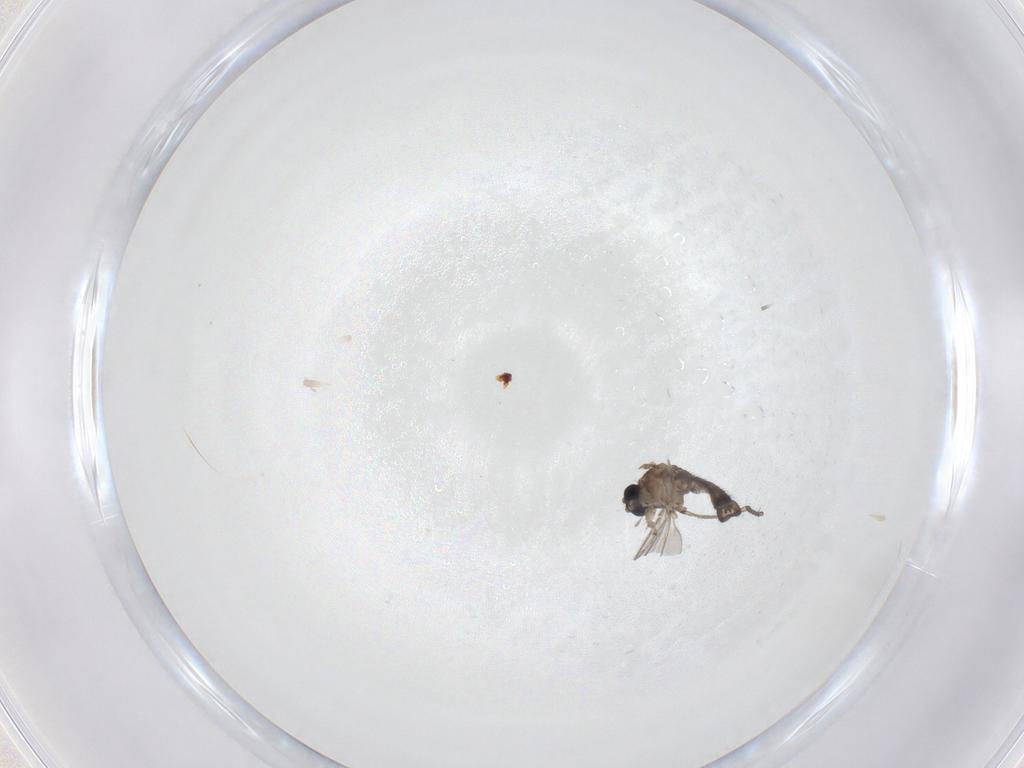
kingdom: Animalia
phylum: Arthropoda
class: Insecta
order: Diptera
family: Sciaridae
